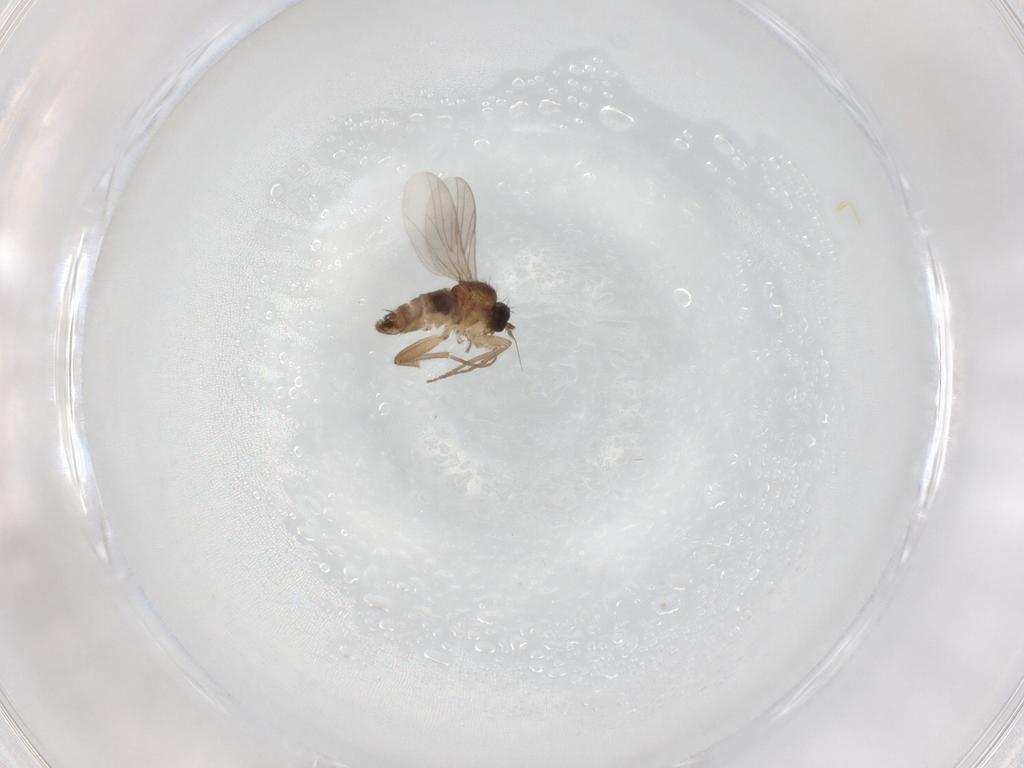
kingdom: Animalia
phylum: Arthropoda
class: Insecta
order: Diptera
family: Hybotidae
